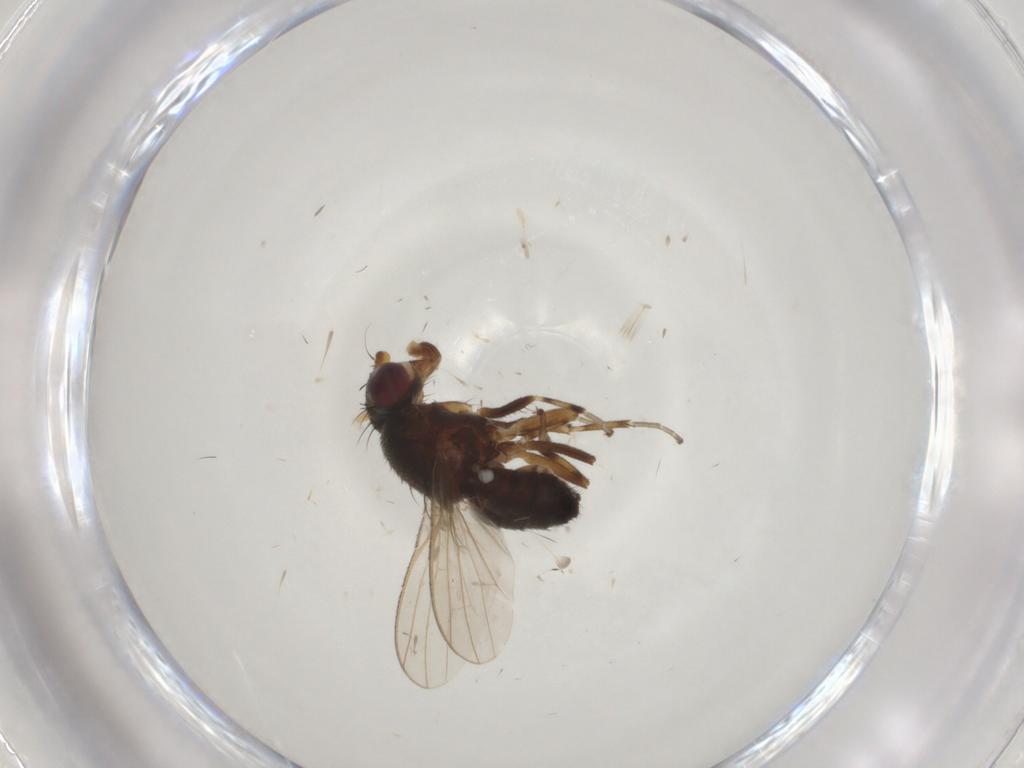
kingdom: Animalia
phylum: Arthropoda
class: Insecta
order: Diptera
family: Heleomyzidae
